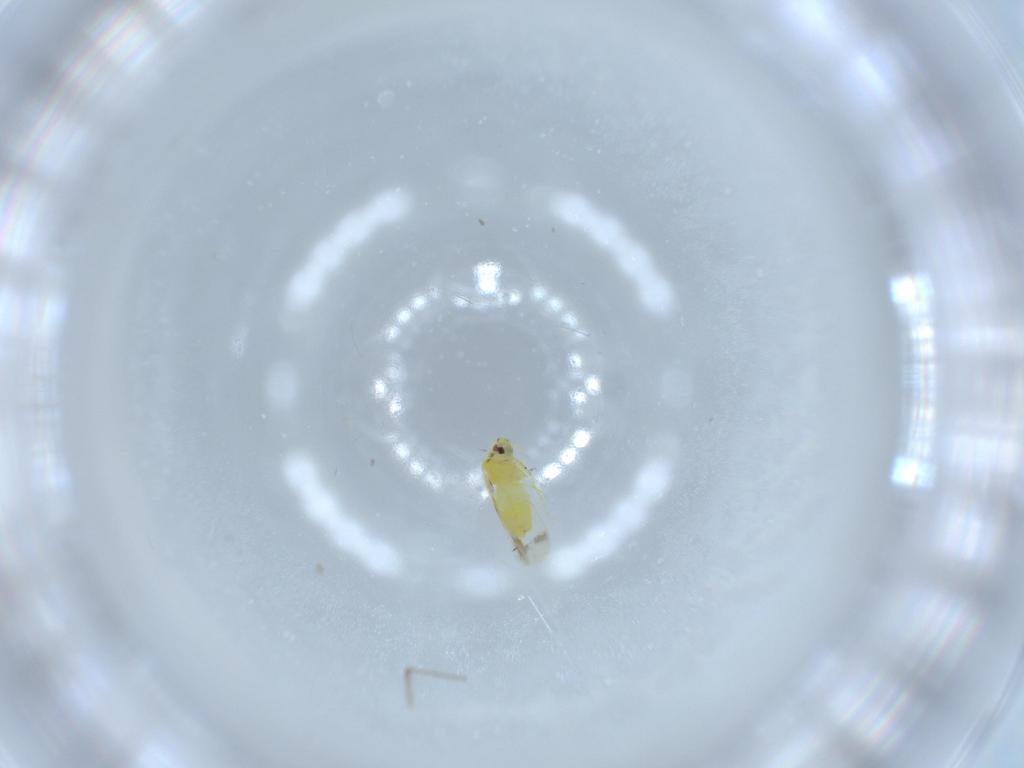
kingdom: Animalia
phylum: Arthropoda
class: Insecta
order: Hemiptera
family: Aleyrodidae
